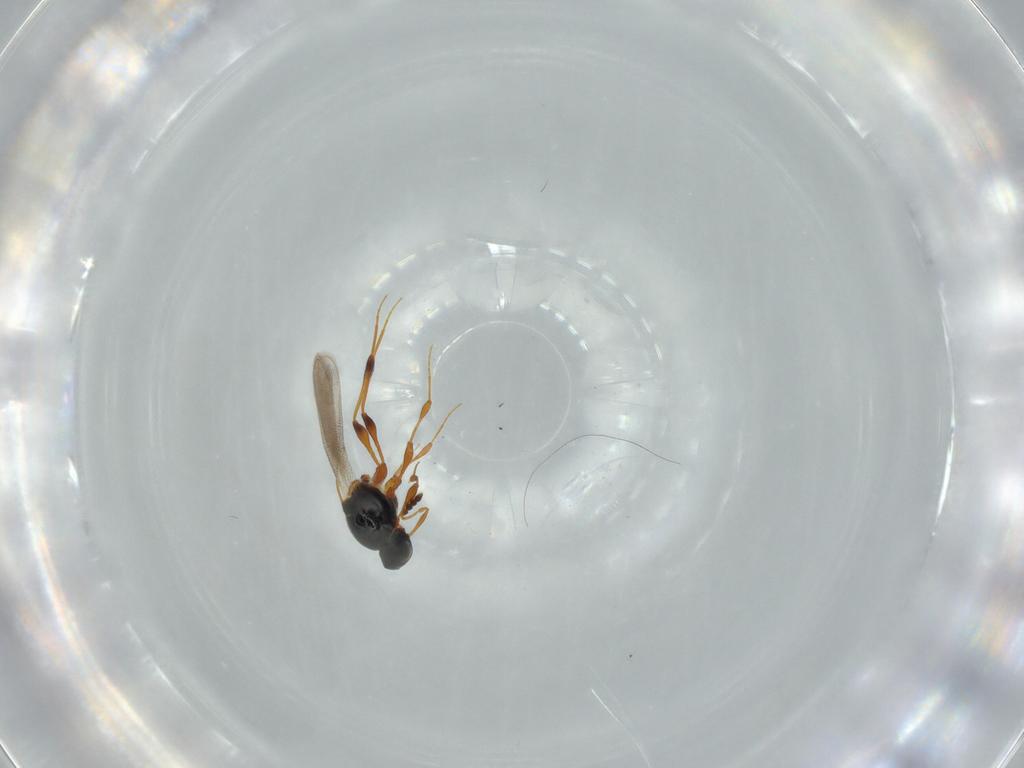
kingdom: Animalia
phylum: Arthropoda
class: Insecta
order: Hymenoptera
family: Platygastridae
